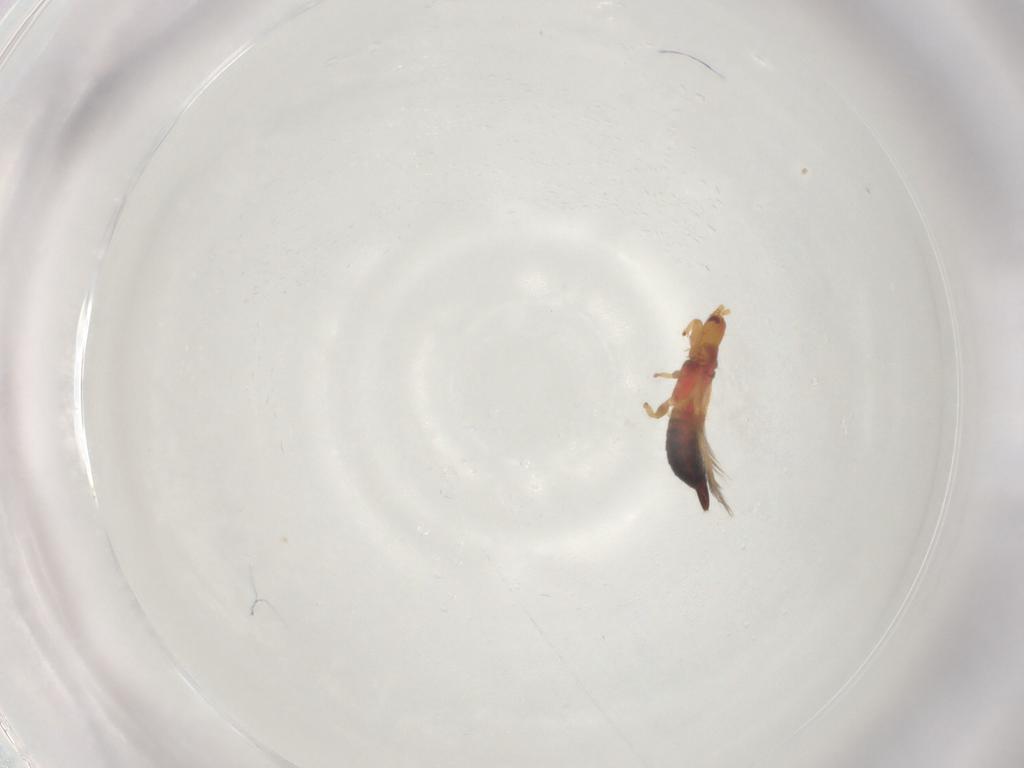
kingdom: Animalia
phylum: Arthropoda
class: Insecta
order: Thysanoptera
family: Phlaeothripidae
